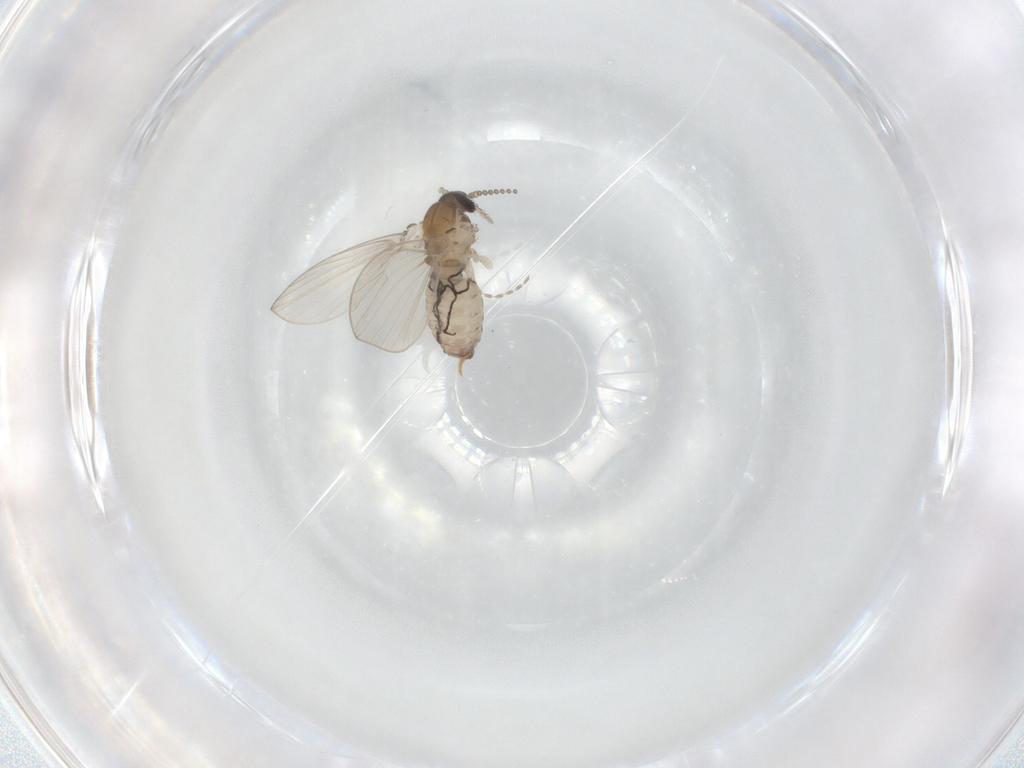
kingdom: Animalia
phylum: Arthropoda
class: Insecta
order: Diptera
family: Psychodidae
